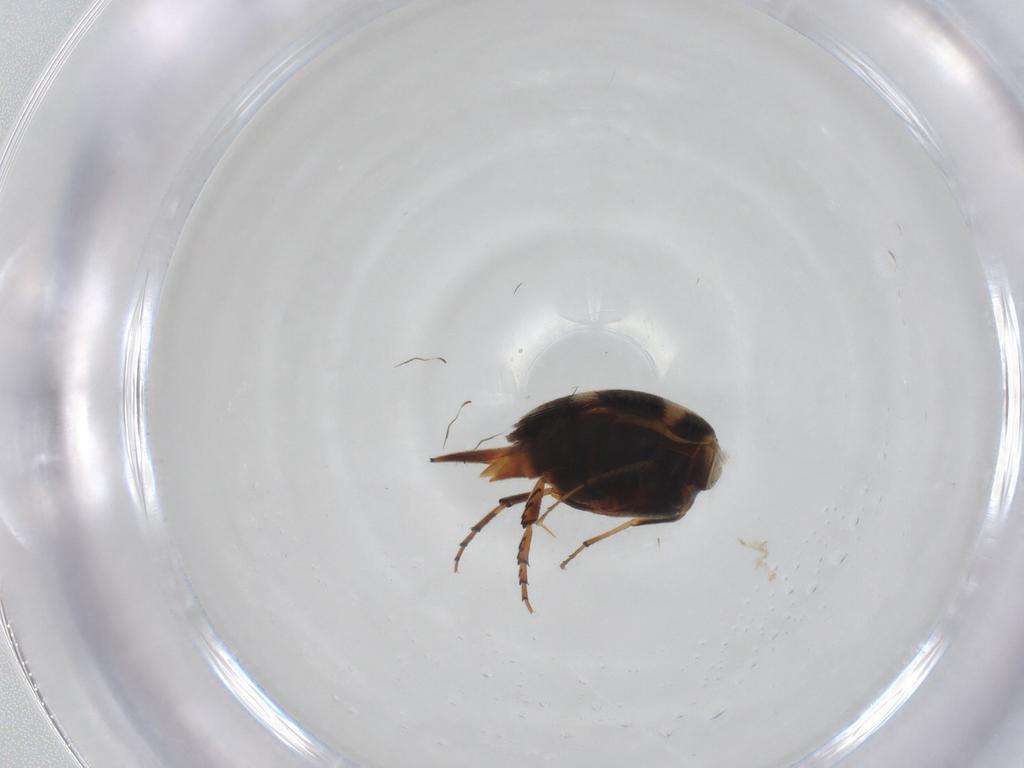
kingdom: Animalia
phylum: Arthropoda
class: Insecta
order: Coleoptera
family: Mordellidae
